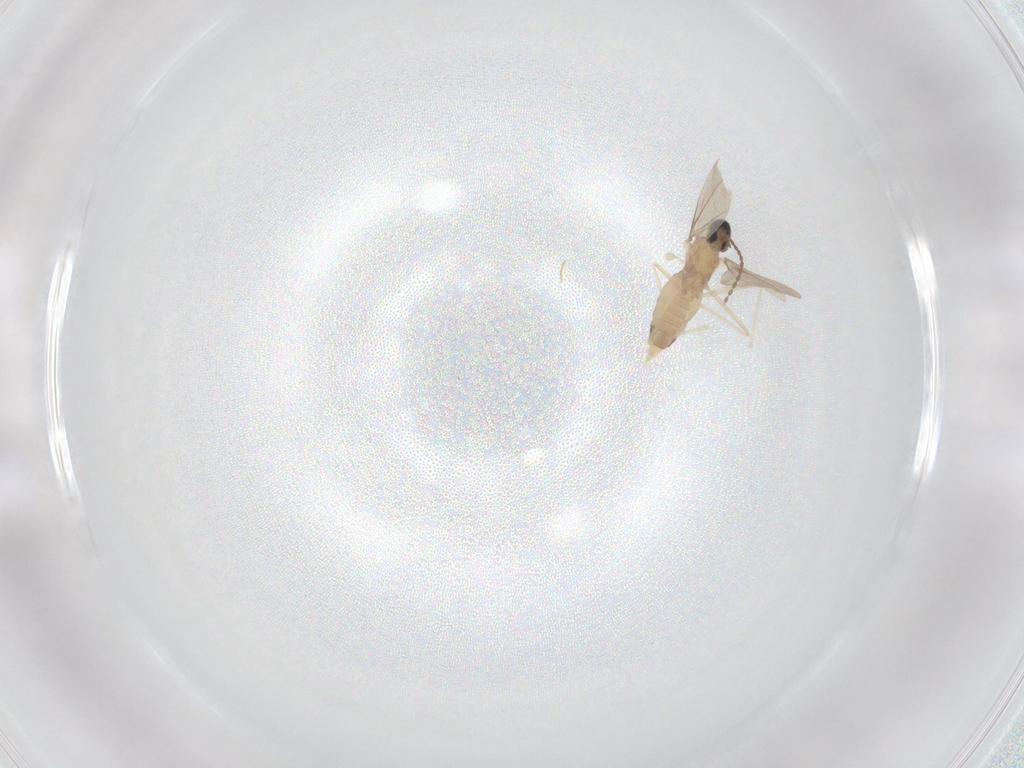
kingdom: Animalia
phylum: Arthropoda
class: Insecta
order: Diptera
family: Cecidomyiidae
